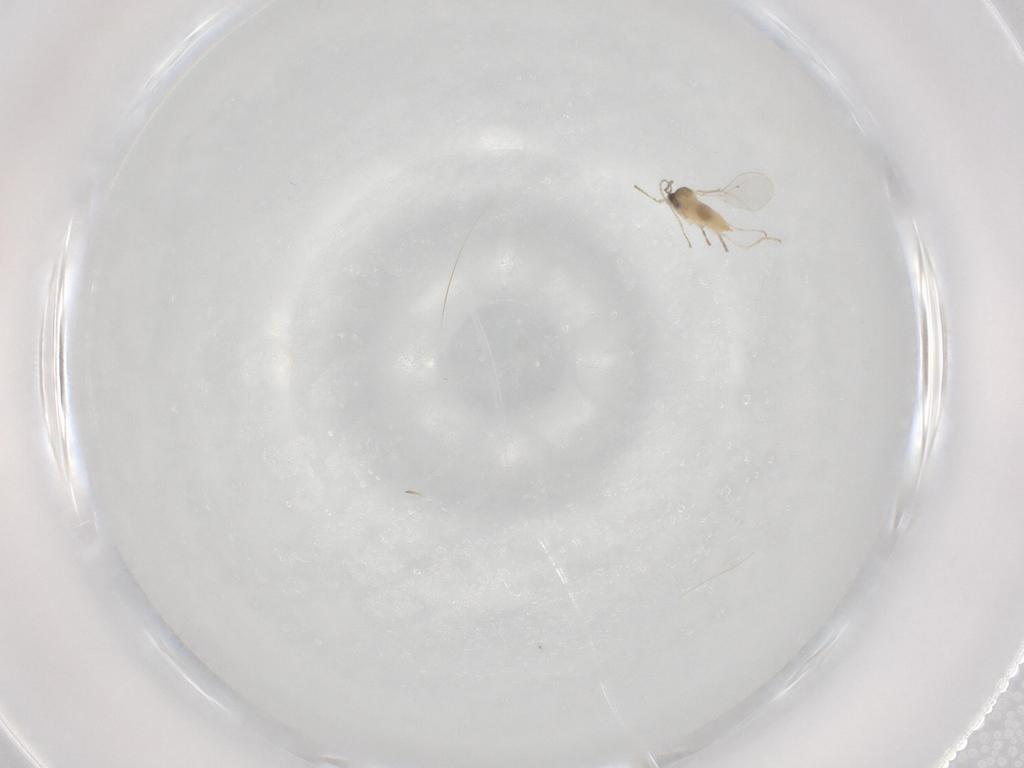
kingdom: Animalia
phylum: Arthropoda
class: Insecta
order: Diptera
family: Cecidomyiidae
